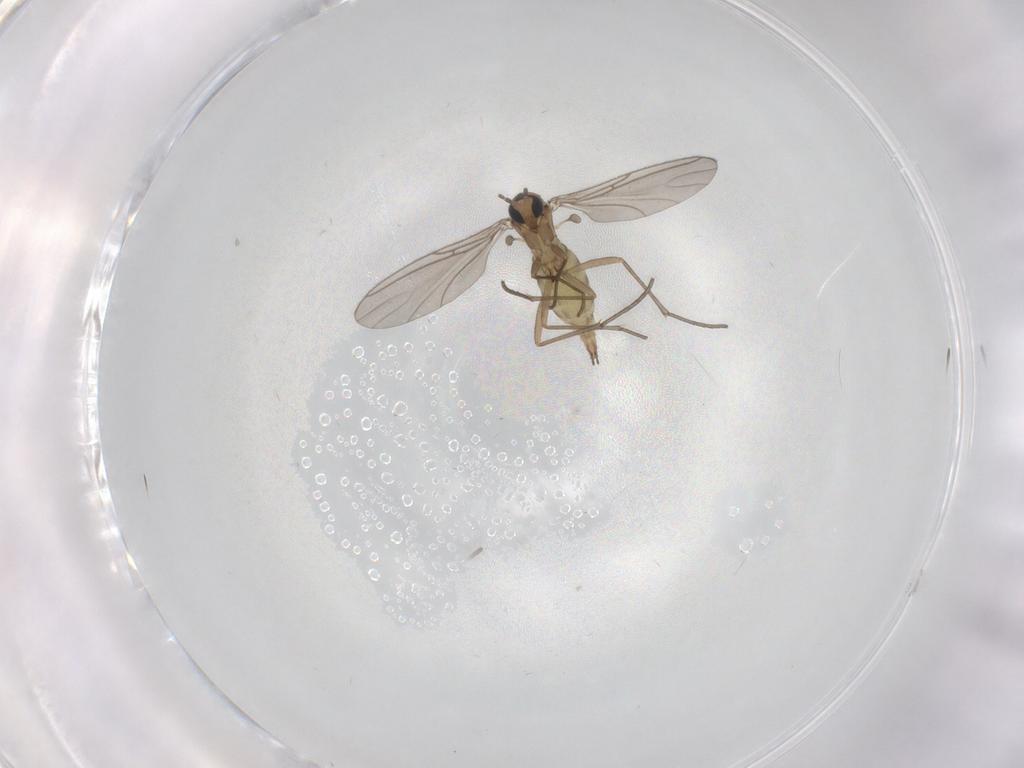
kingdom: Animalia
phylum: Arthropoda
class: Insecta
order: Diptera
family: Sciaridae
